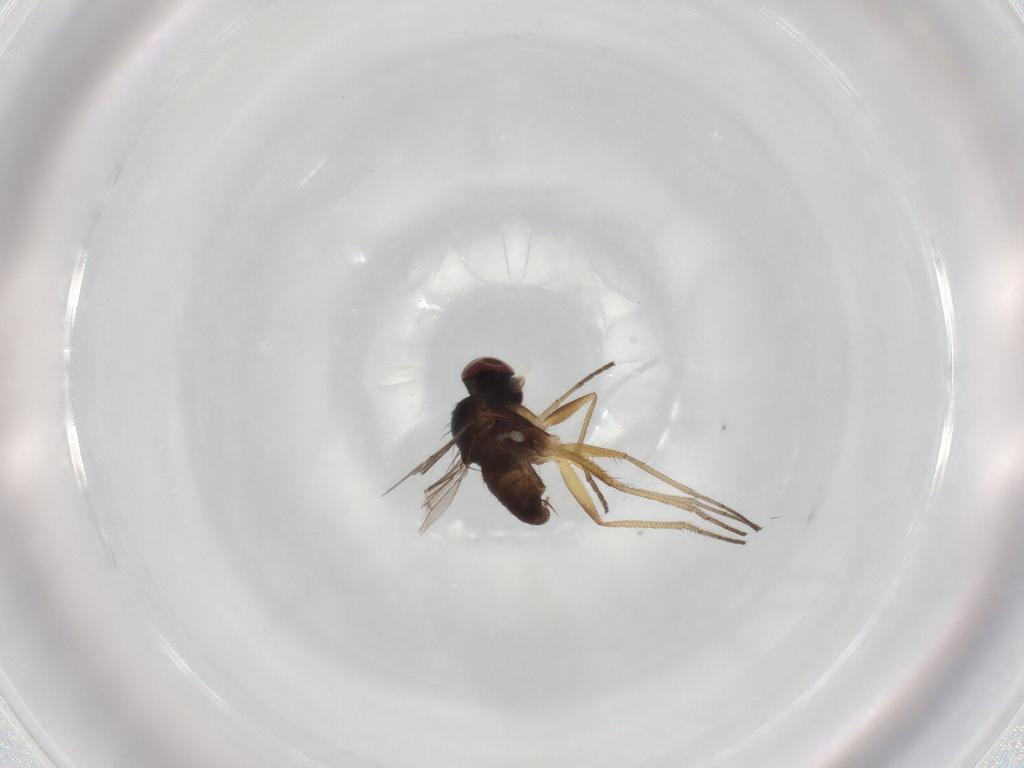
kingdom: Animalia
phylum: Arthropoda
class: Insecta
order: Diptera
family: Dolichopodidae
